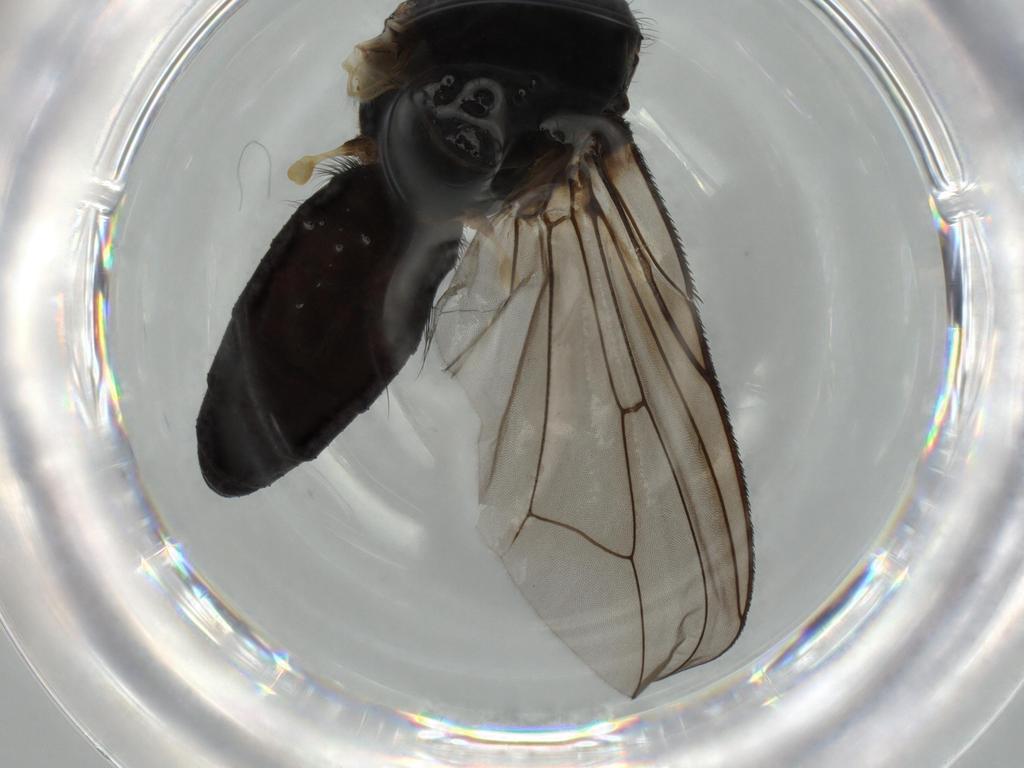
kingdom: Animalia
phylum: Arthropoda
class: Insecta
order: Diptera
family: Anthomyiidae
